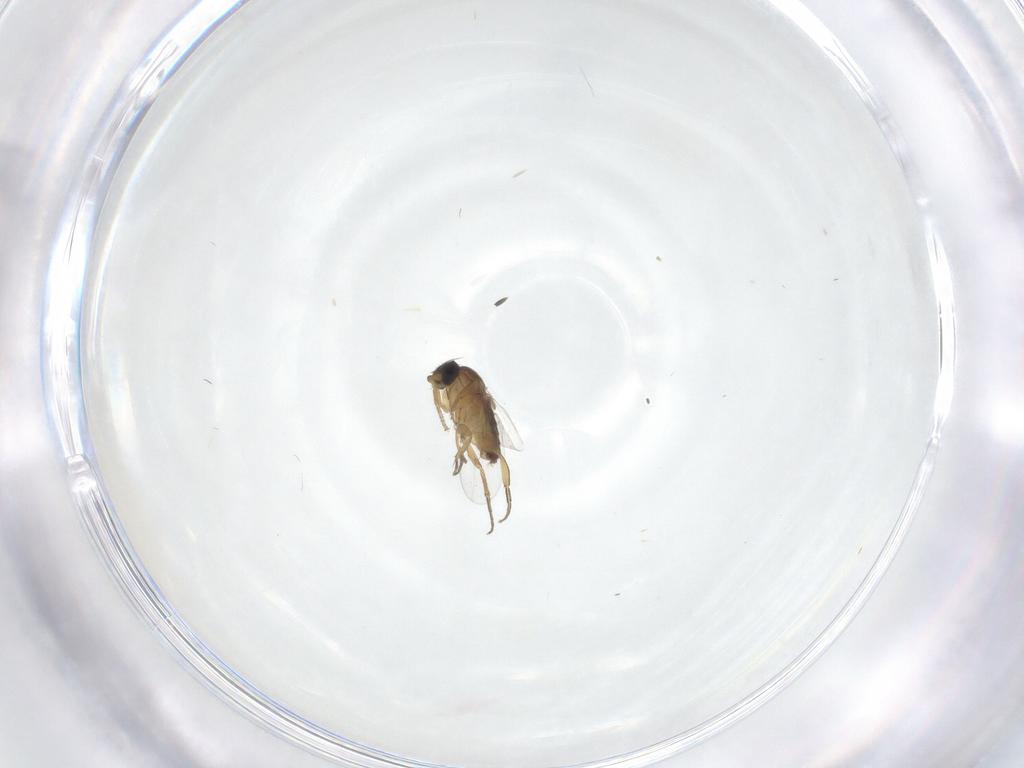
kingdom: Animalia
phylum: Arthropoda
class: Insecta
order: Diptera
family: Phoridae
